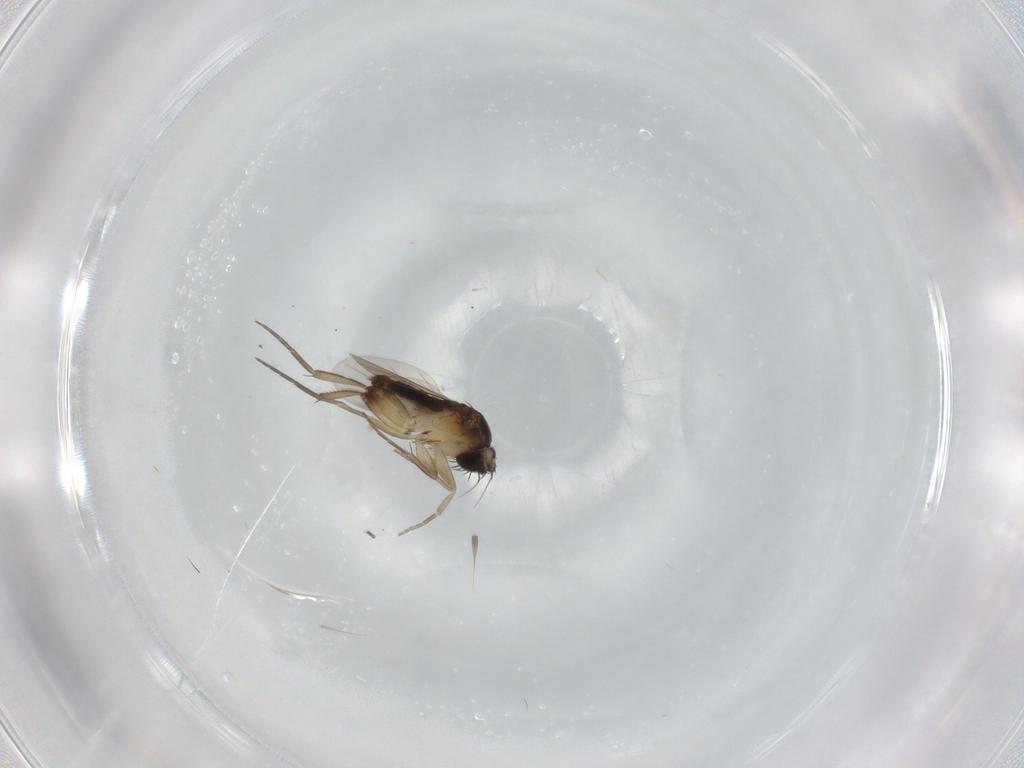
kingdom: Animalia
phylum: Arthropoda
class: Insecta
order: Diptera
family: Phoridae
